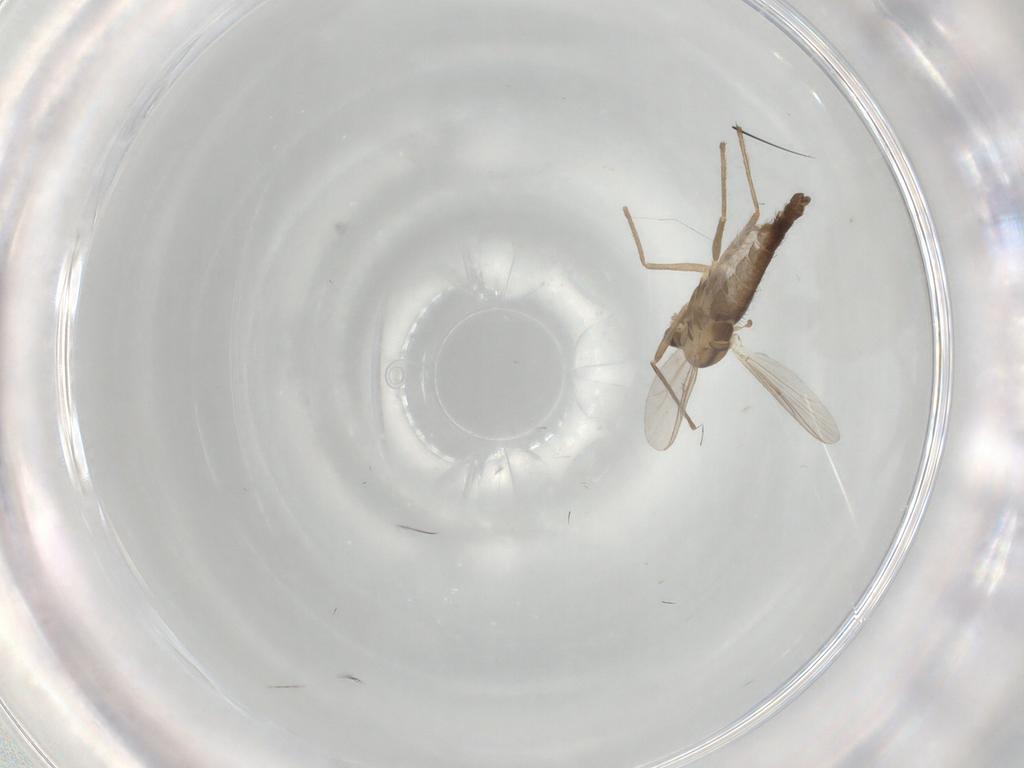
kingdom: Animalia
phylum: Arthropoda
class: Insecta
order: Diptera
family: Chironomidae
